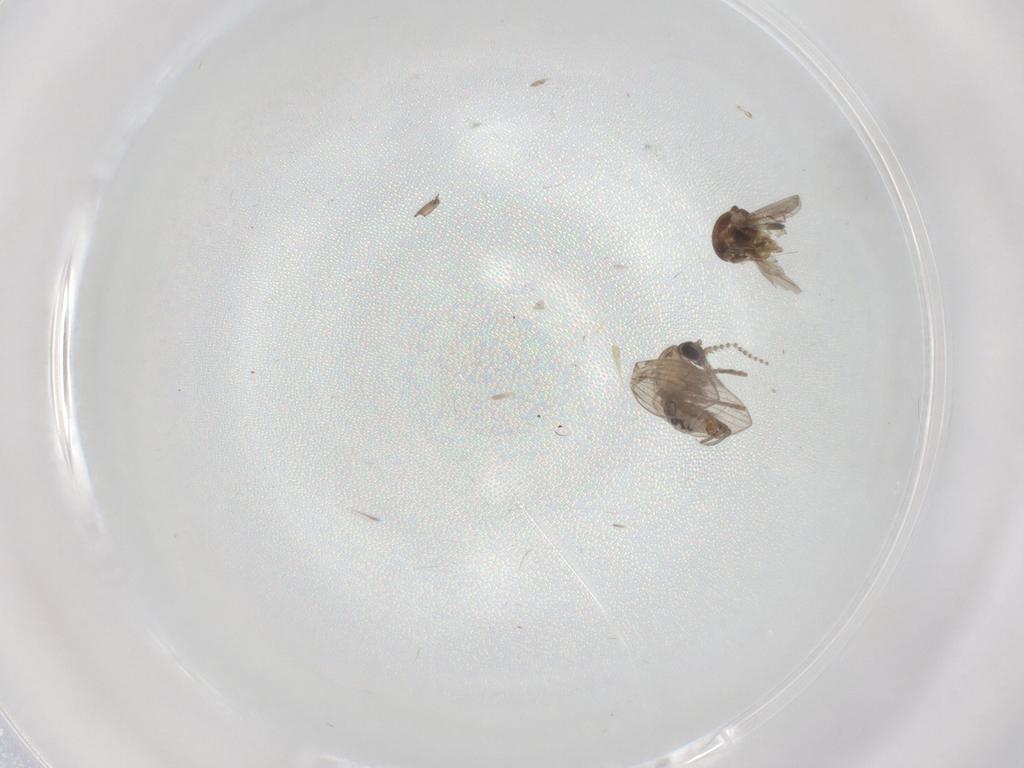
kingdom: Animalia
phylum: Arthropoda
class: Insecta
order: Diptera
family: Psychodidae
